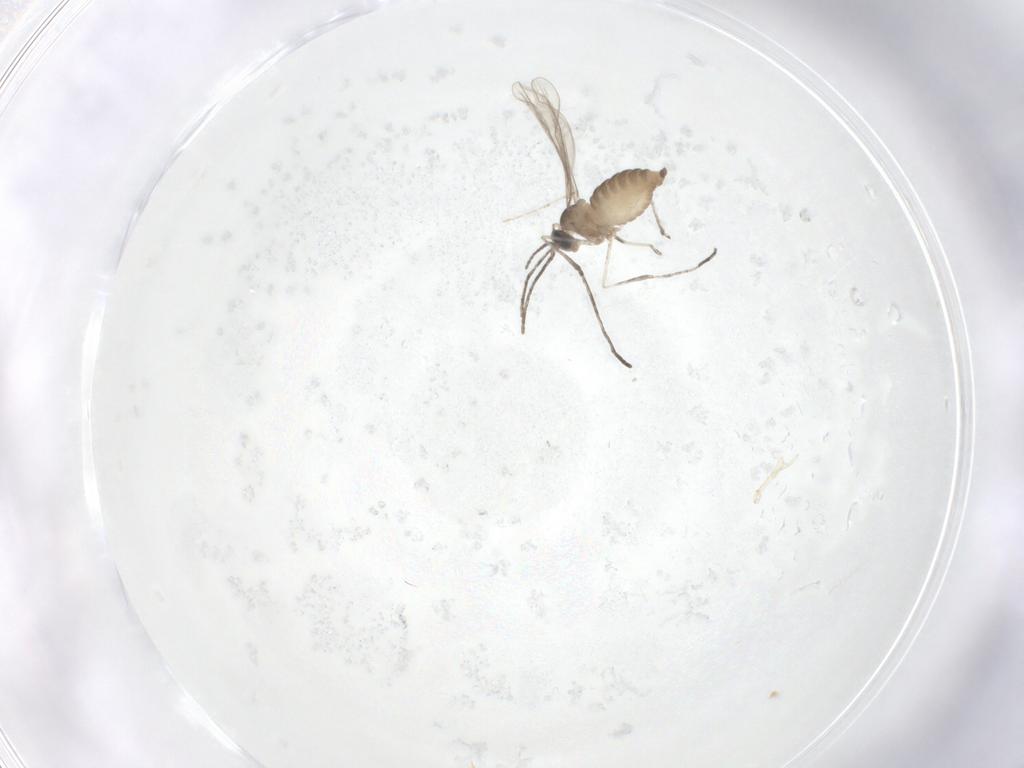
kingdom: Animalia
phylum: Arthropoda
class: Insecta
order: Diptera
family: Cecidomyiidae
